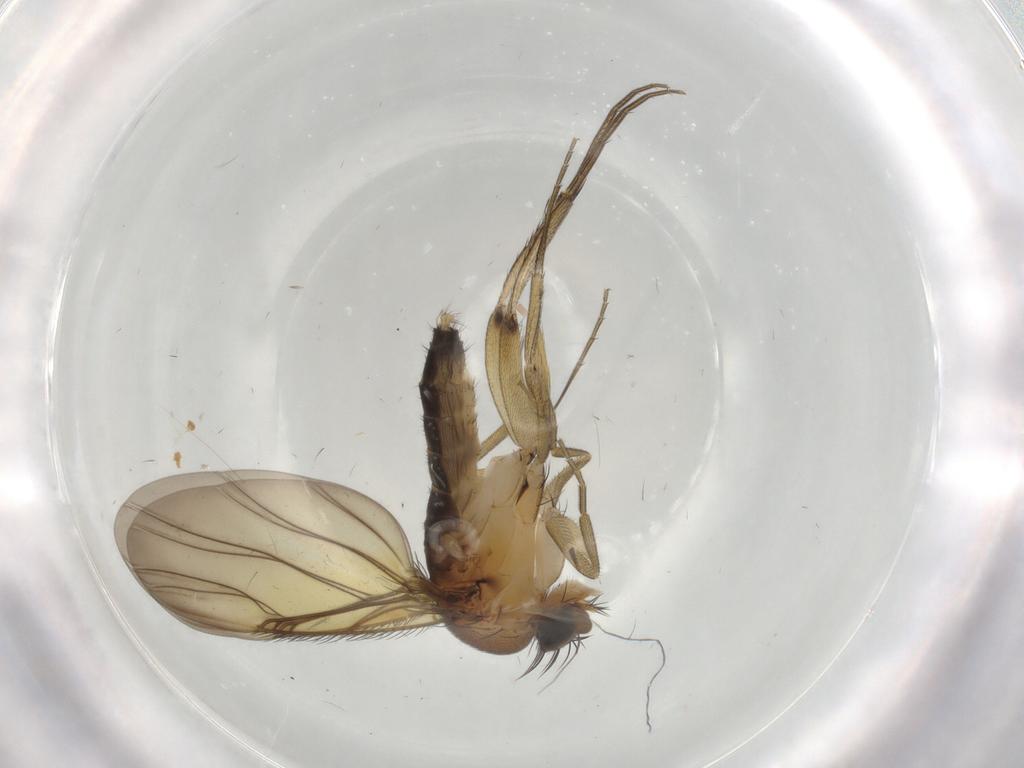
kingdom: Animalia
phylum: Arthropoda
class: Insecta
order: Diptera
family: Phoridae
